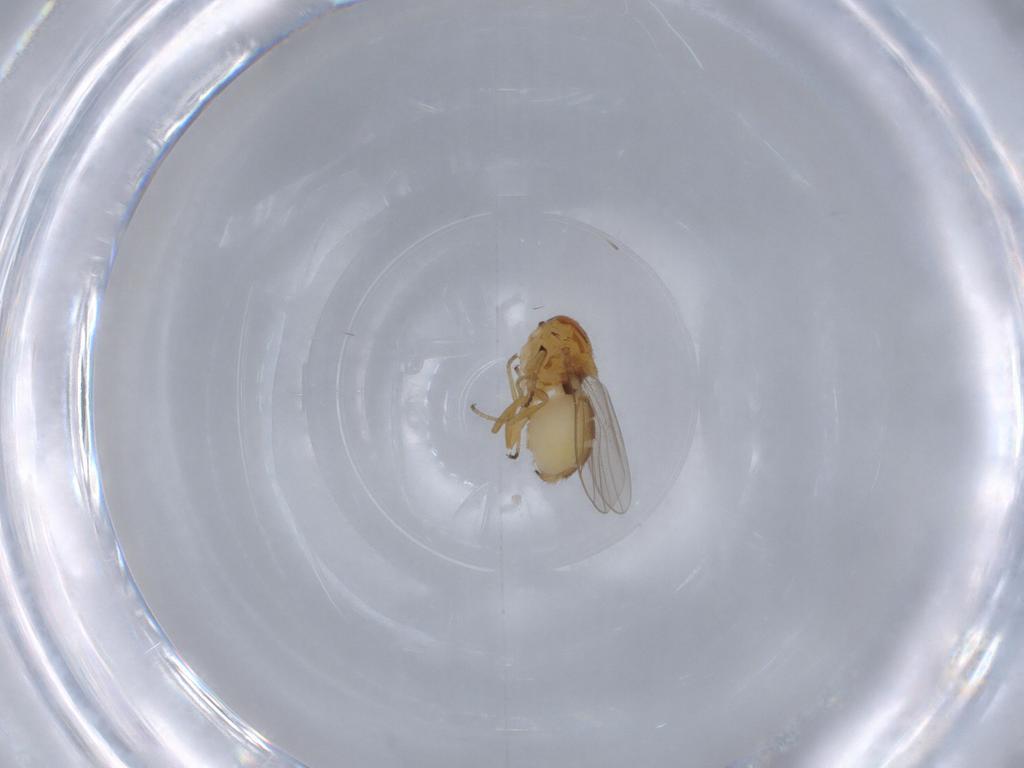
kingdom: Animalia
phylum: Arthropoda
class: Insecta
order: Diptera
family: Chloropidae
